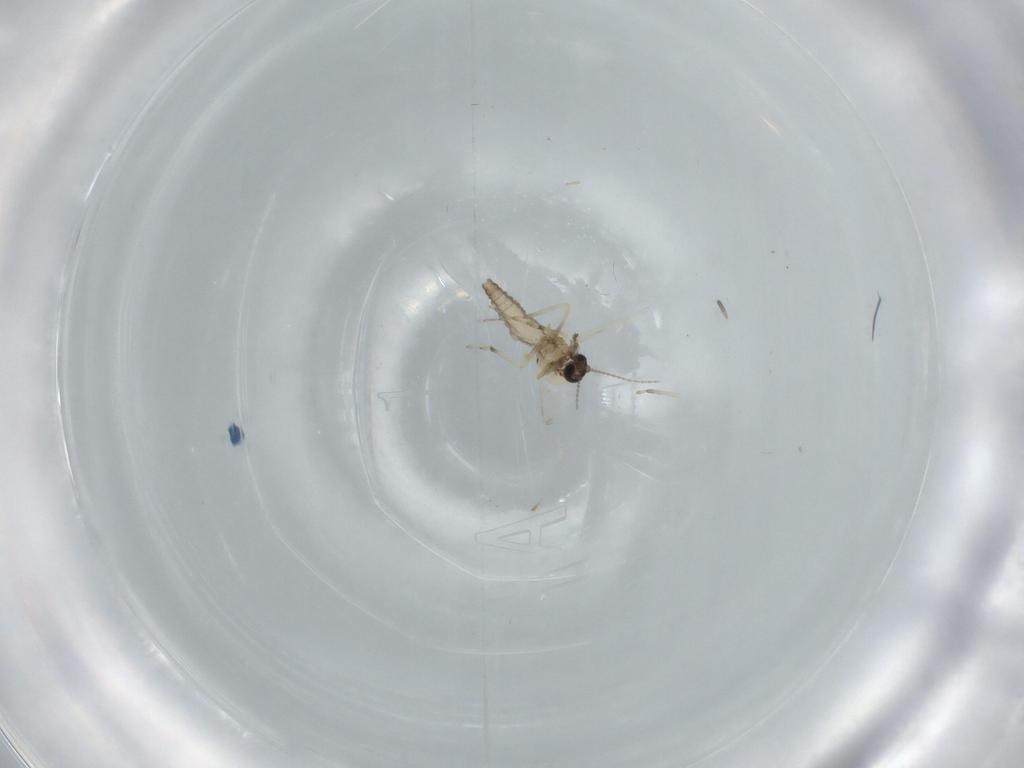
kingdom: Animalia
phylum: Arthropoda
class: Insecta
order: Diptera
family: Ceratopogonidae
